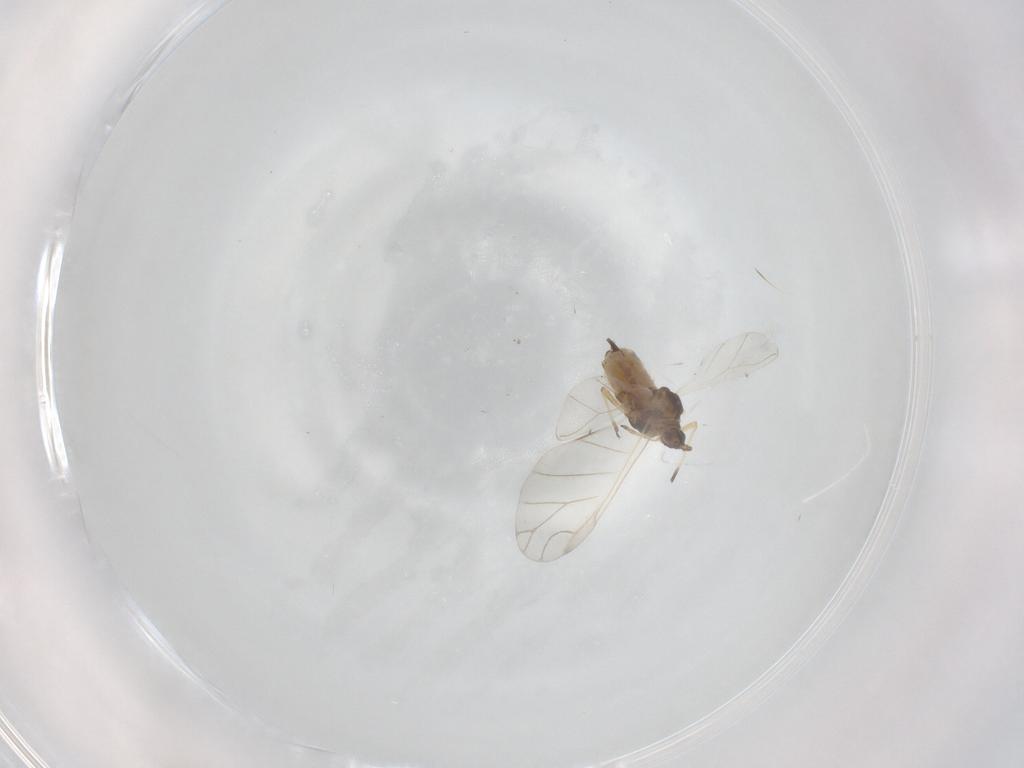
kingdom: Animalia
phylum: Arthropoda
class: Insecta
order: Hemiptera
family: Aphididae
